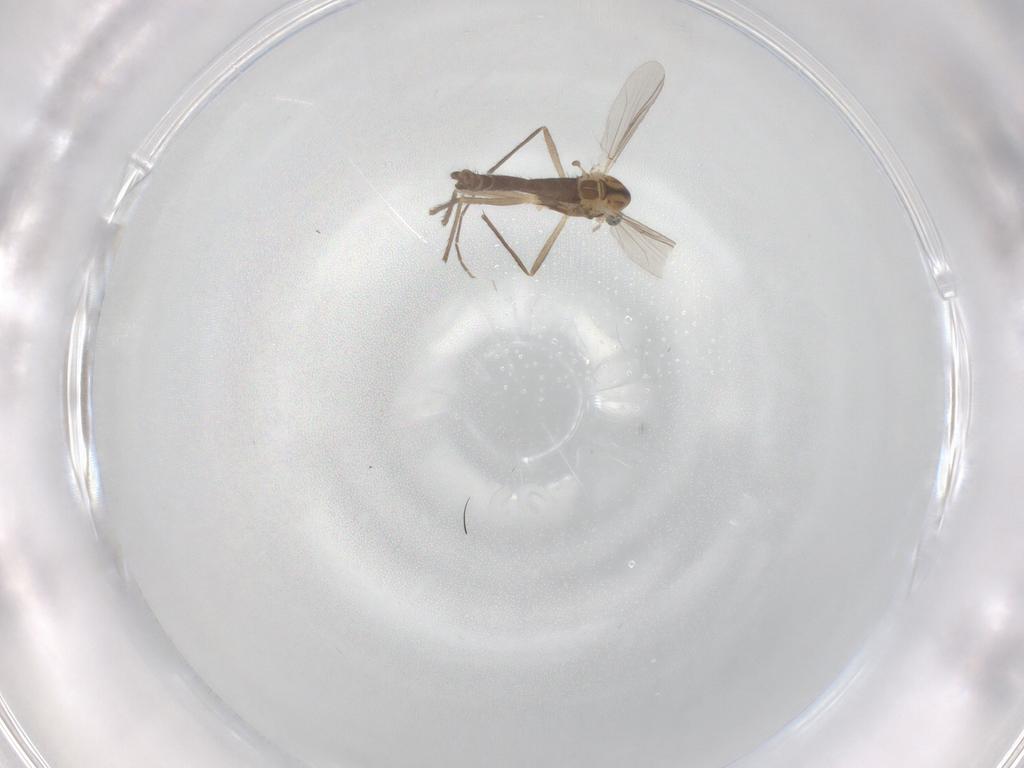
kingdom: Animalia
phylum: Arthropoda
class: Insecta
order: Diptera
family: Chironomidae
